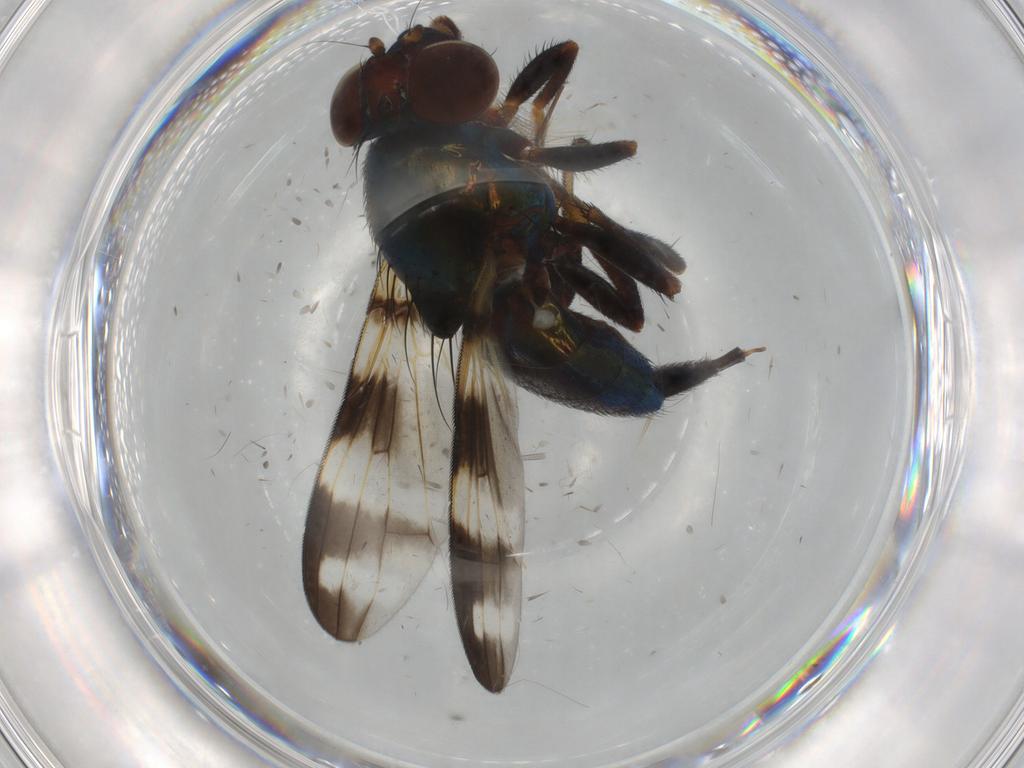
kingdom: Animalia
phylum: Arthropoda
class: Insecta
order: Diptera
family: Ulidiidae
